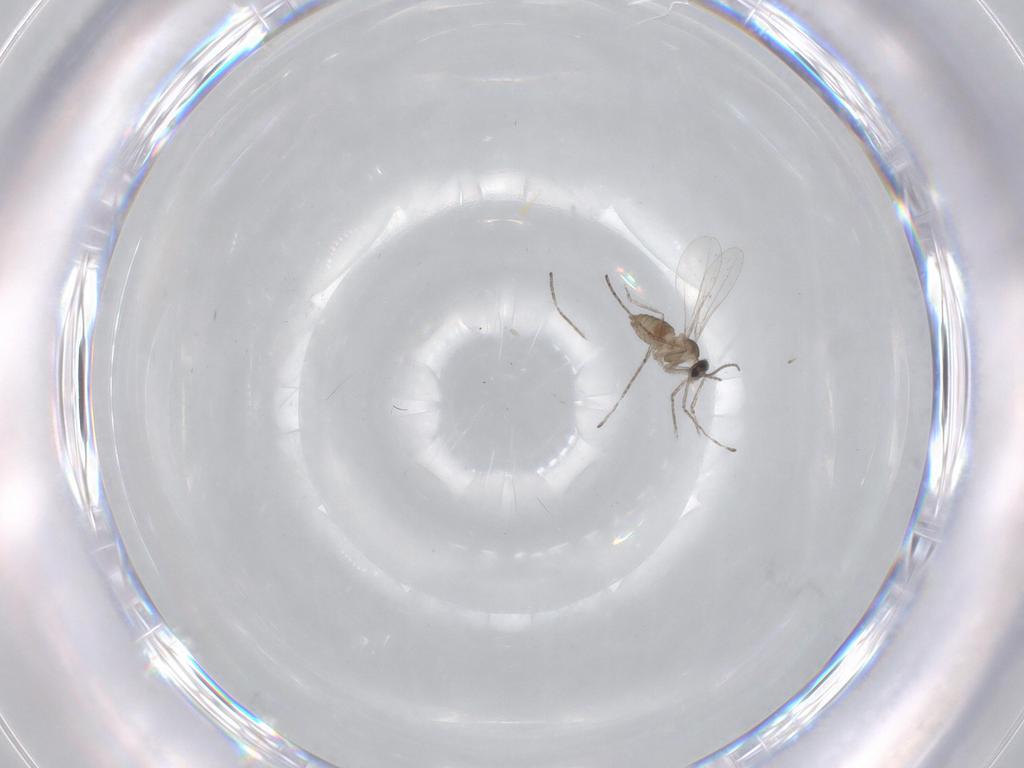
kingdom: Animalia
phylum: Arthropoda
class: Insecta
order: Diptera
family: Cecidomyiidae
